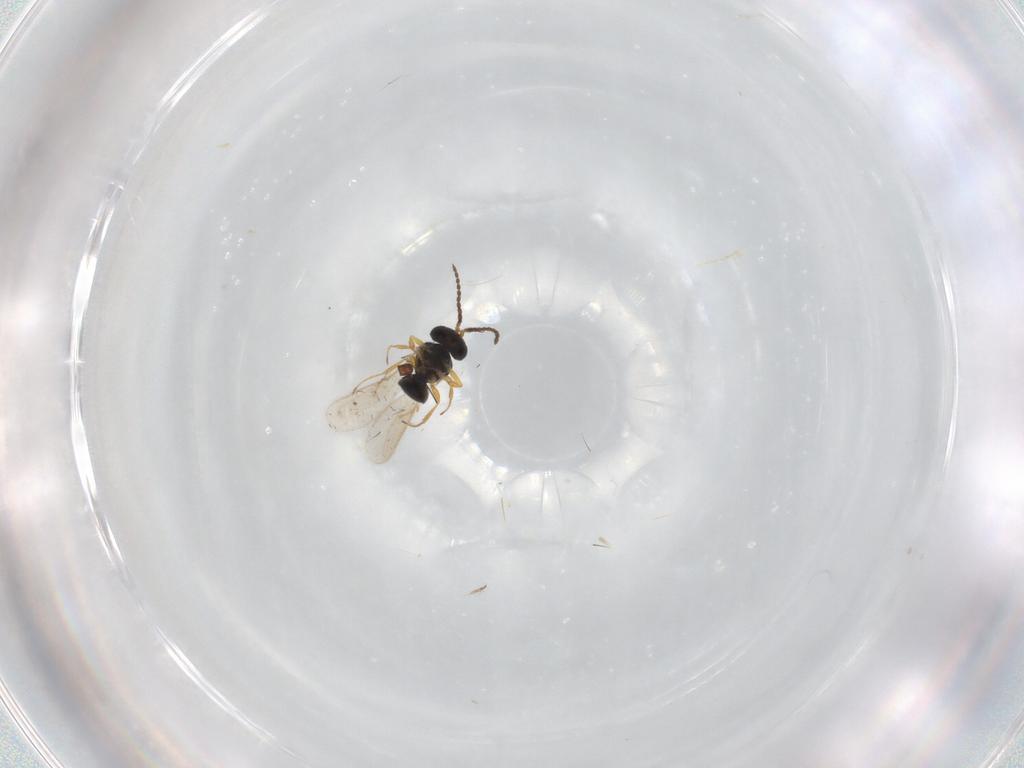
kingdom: Animalia
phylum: Arthropoda
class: Insecta
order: Hymenoptera
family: Scelionidae
